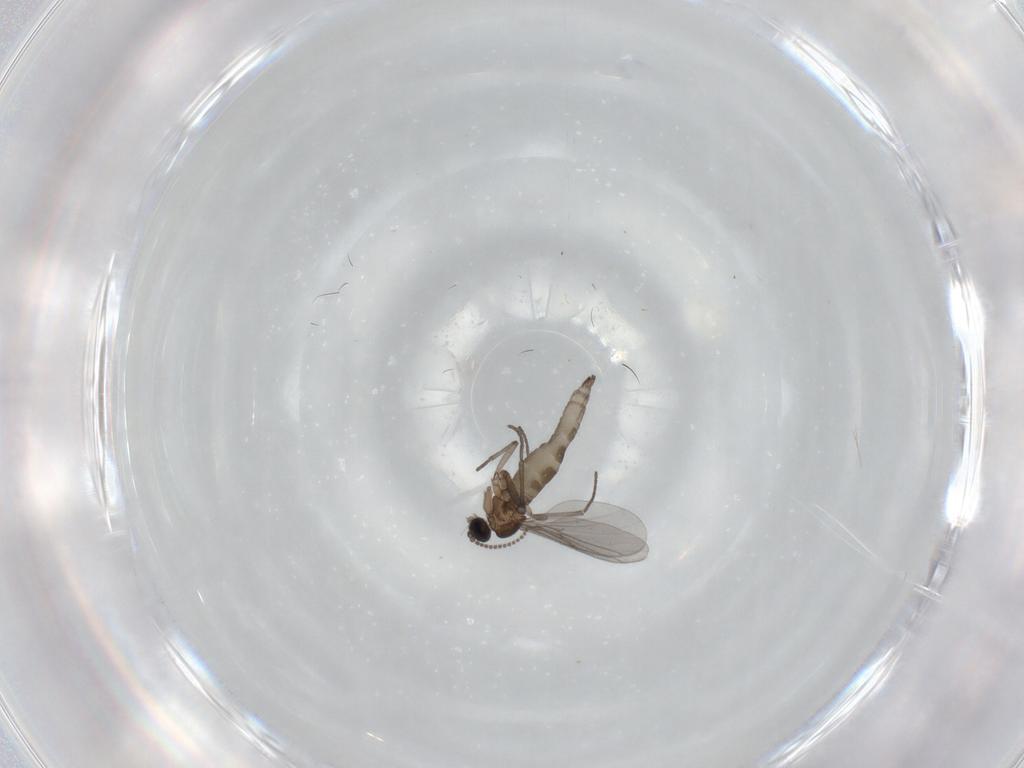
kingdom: Animalia
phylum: Arthropoda
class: Insecta
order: Diptera
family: Sciaridae
